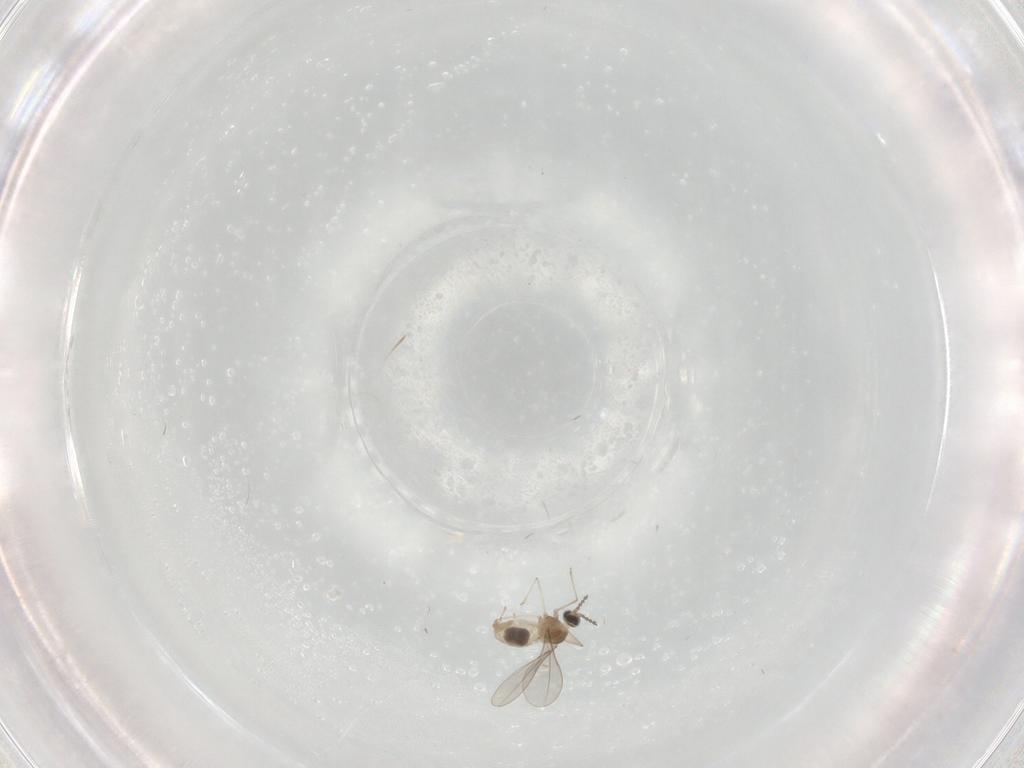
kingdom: Animalia
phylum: Arthropoda
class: Insecta
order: Diptera
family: Cecidomyiidae
